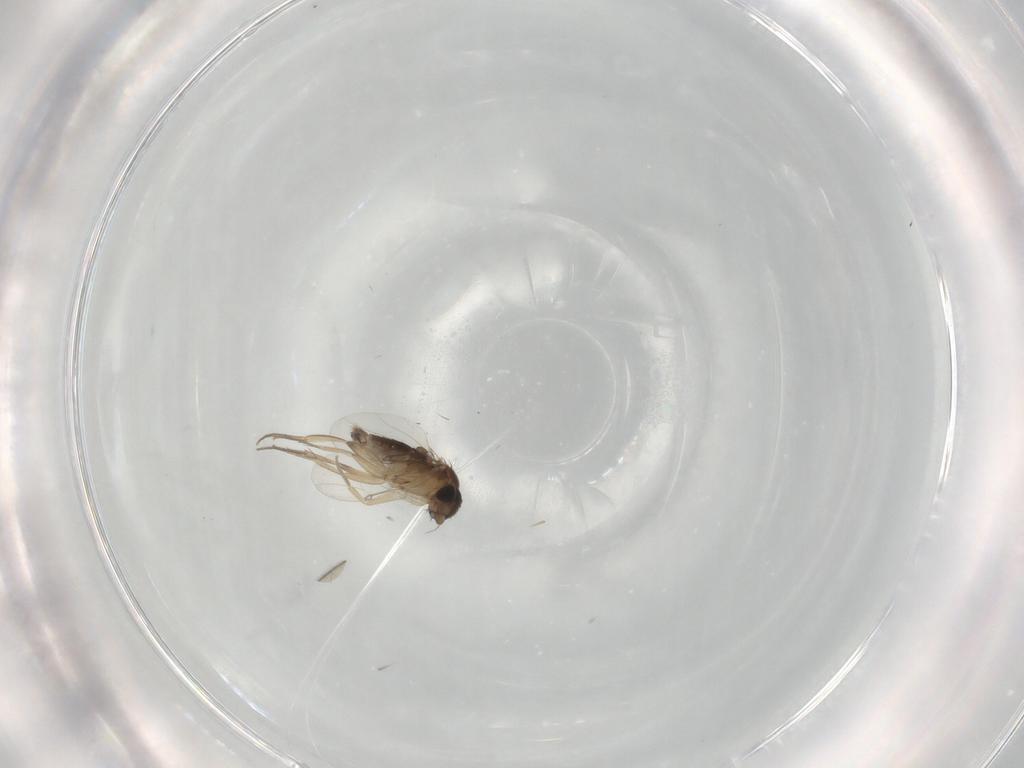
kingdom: Animalia
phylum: Arthropoda
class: Insecta
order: Diptera
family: Phoridae
